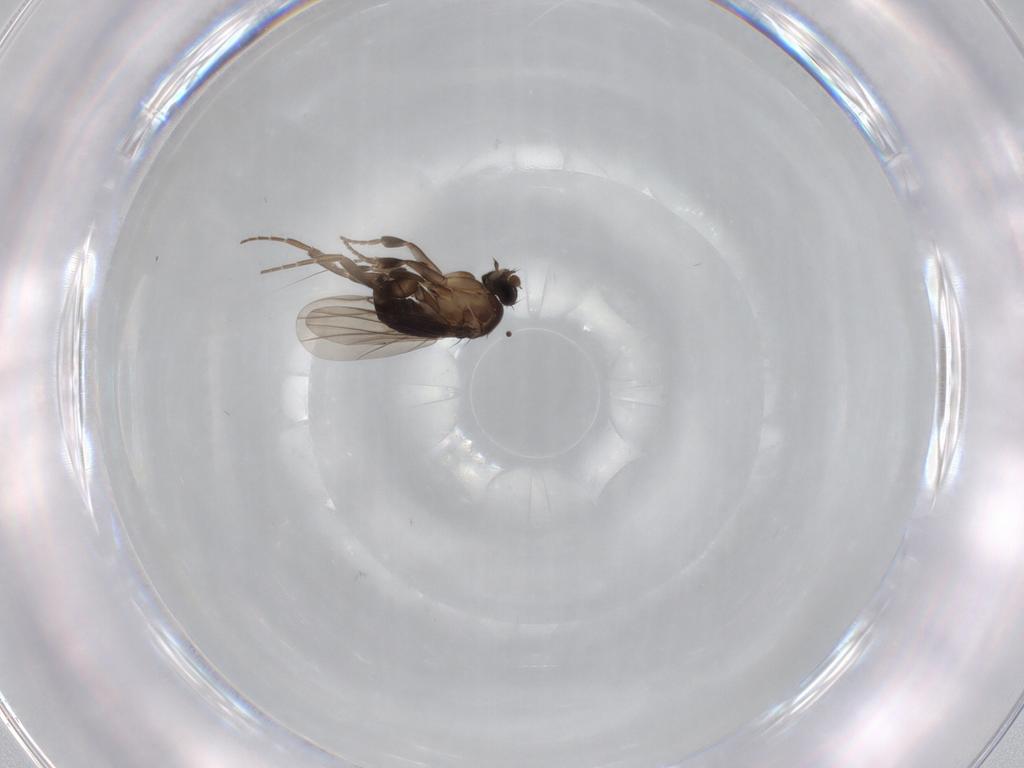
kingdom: Animalia
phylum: Arthropoda
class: Insecta
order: Diptera
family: Phoridae
